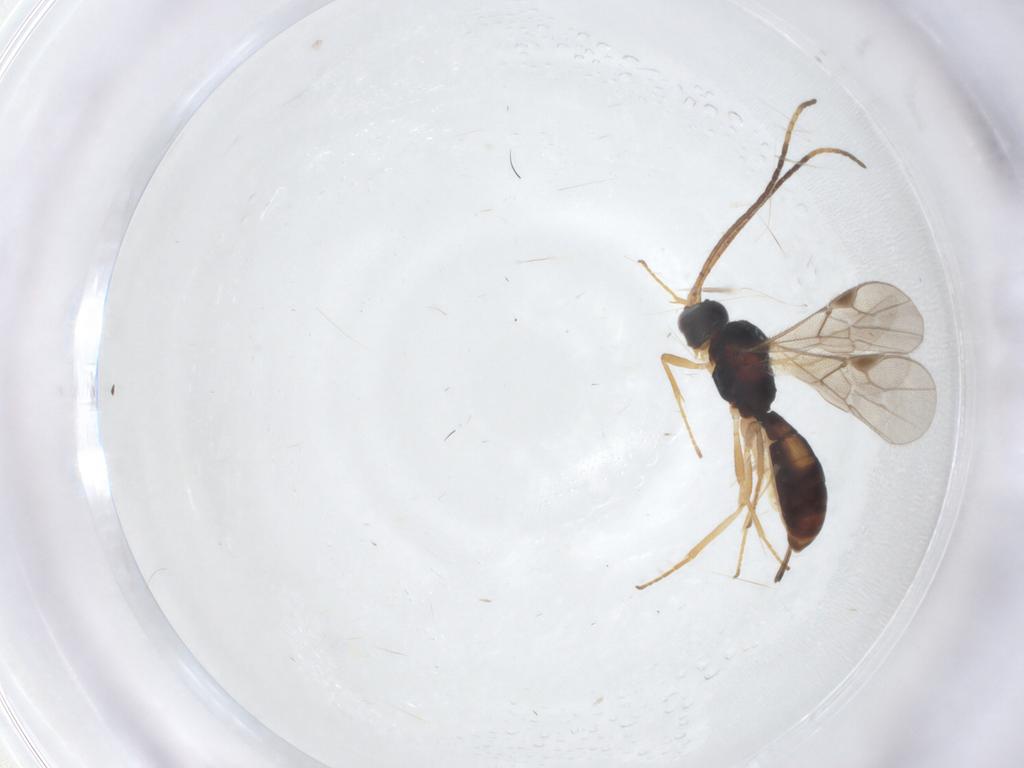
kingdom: Animalia
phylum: Arthropoda
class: Insecta
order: Hymenoptera
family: Braconidae
